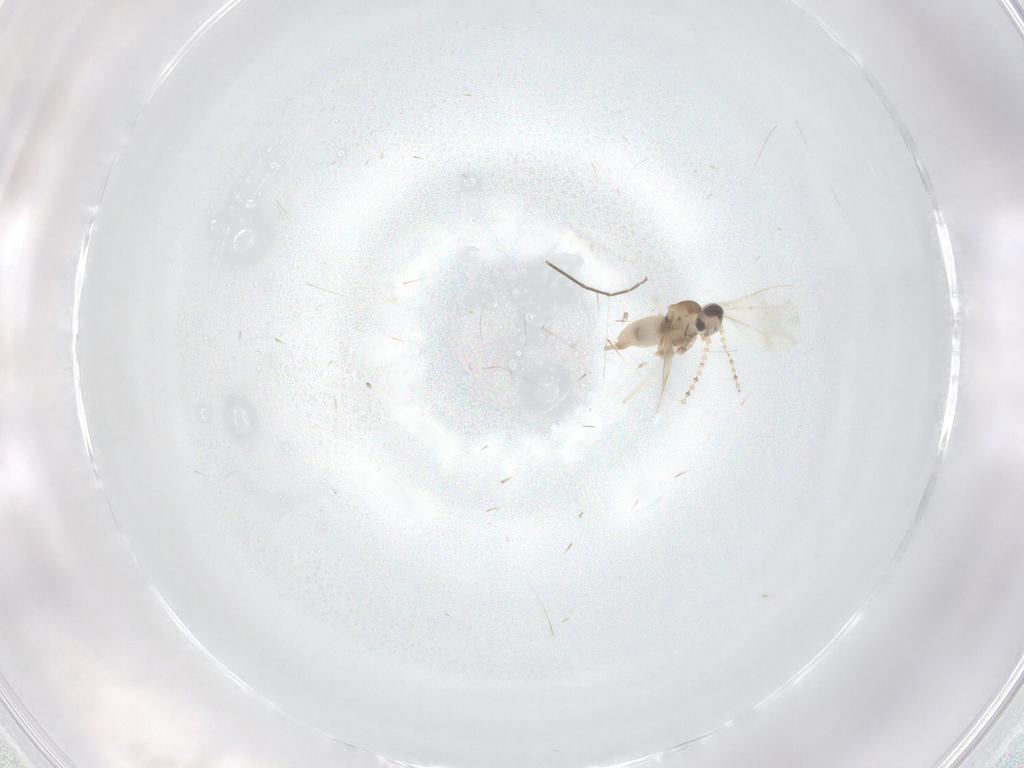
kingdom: Animalia
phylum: Arthropoda
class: Insecta
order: Diptera
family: Cecidomyiidae
